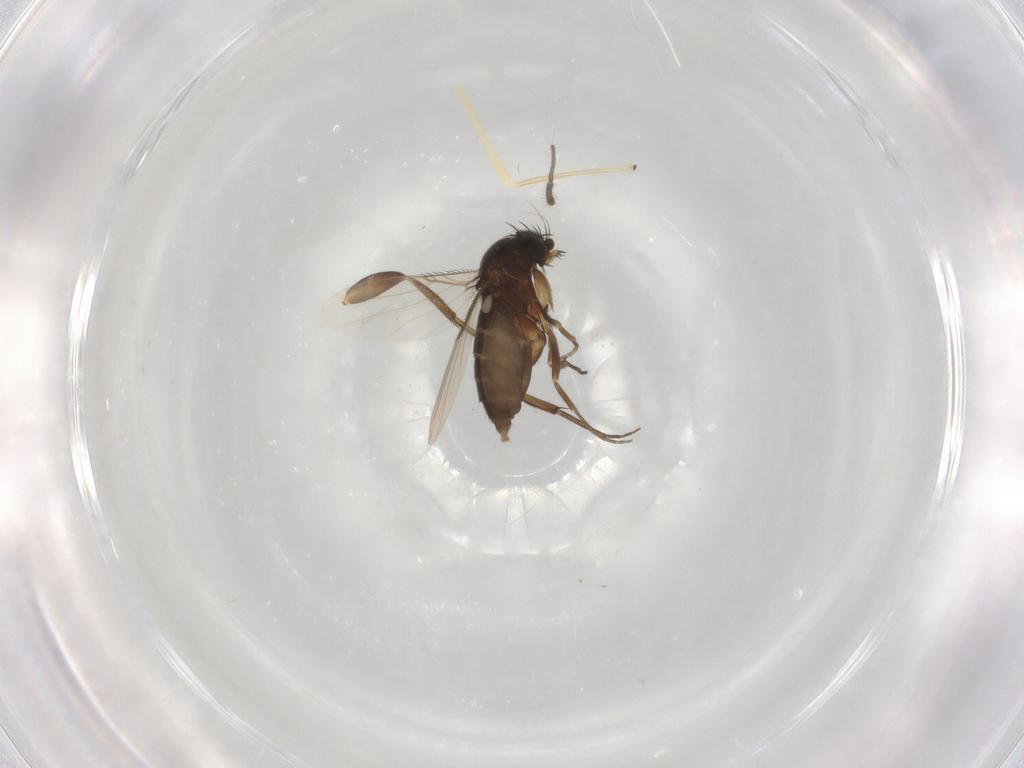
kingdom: Animalia
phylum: Arthropoda
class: Insecta
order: Diptera
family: Phoridae
